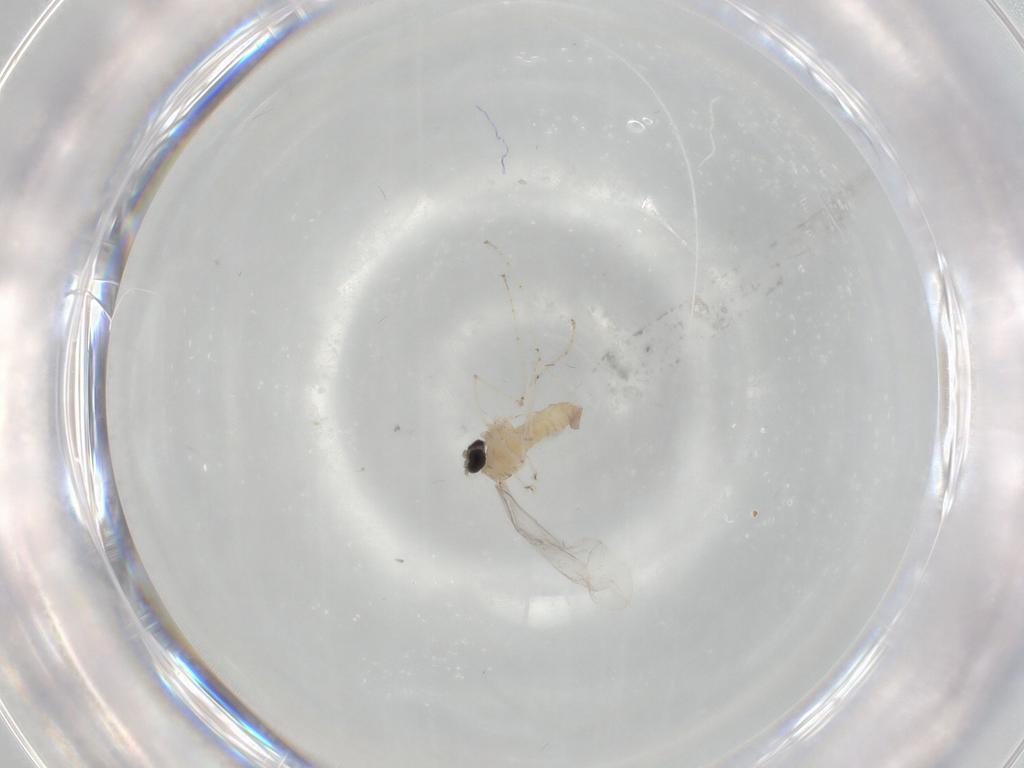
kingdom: Animalia
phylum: Arthropoda
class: Insecta
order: Diptera
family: Cecidomyiidae
